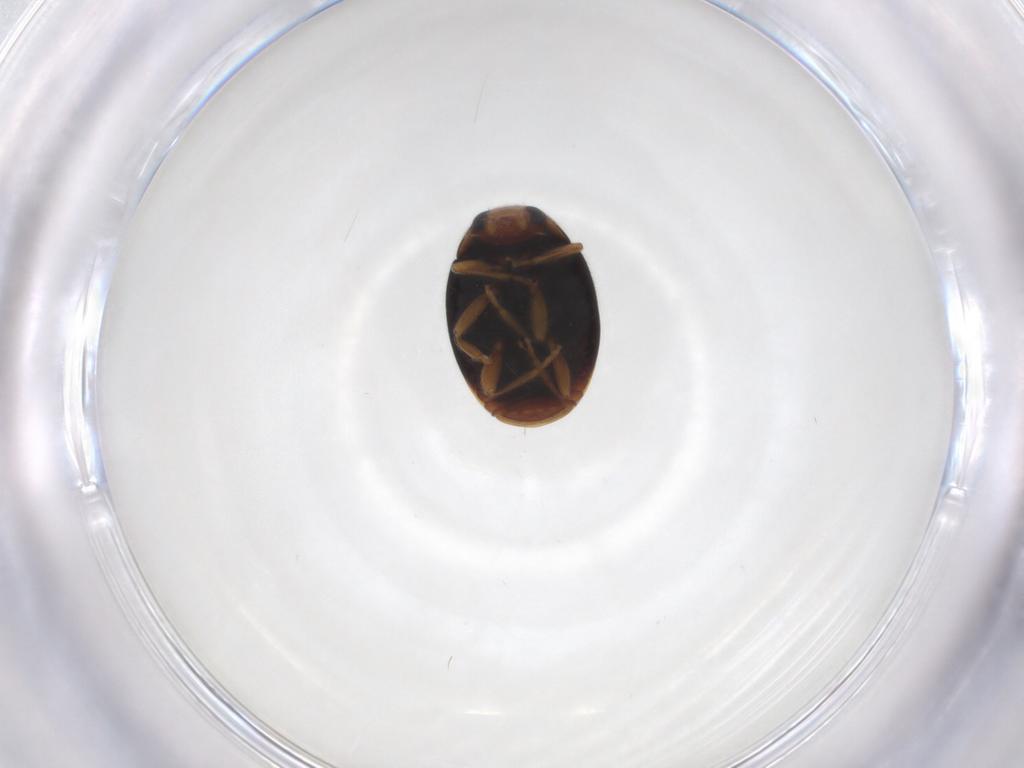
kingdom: Animalia
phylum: Arthropoda
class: Insecta
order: Coleoptera
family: Coccinellidae
